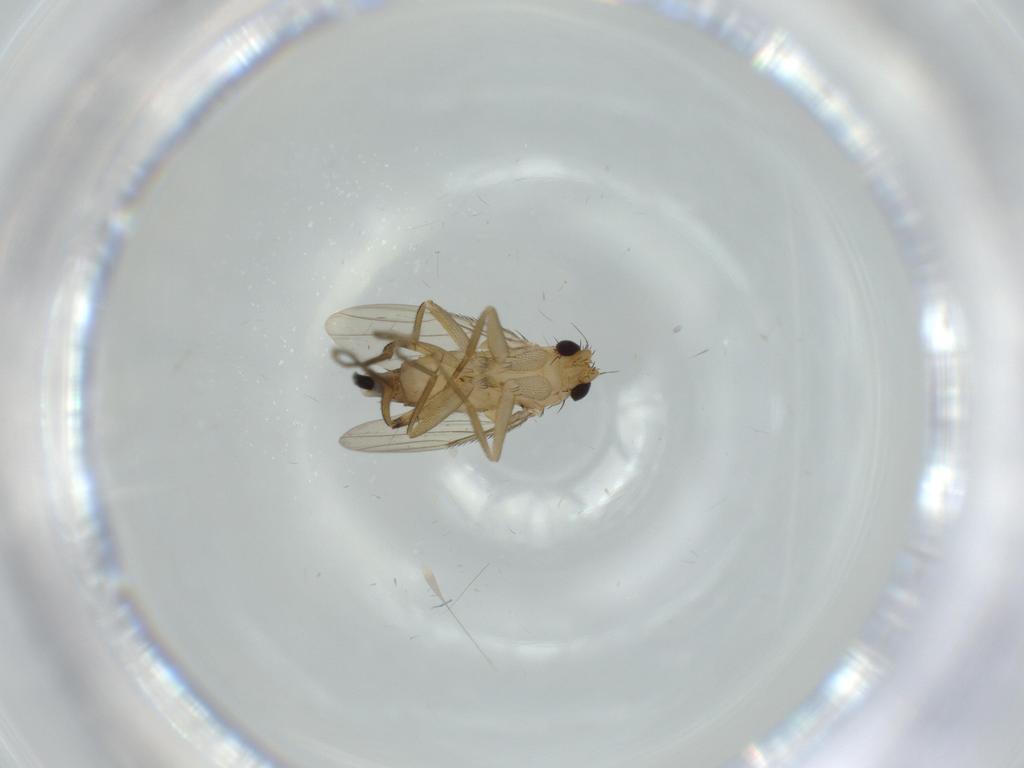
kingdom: Animalia
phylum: Arthropoda
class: Insecta
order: Diptera
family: Phoridae
